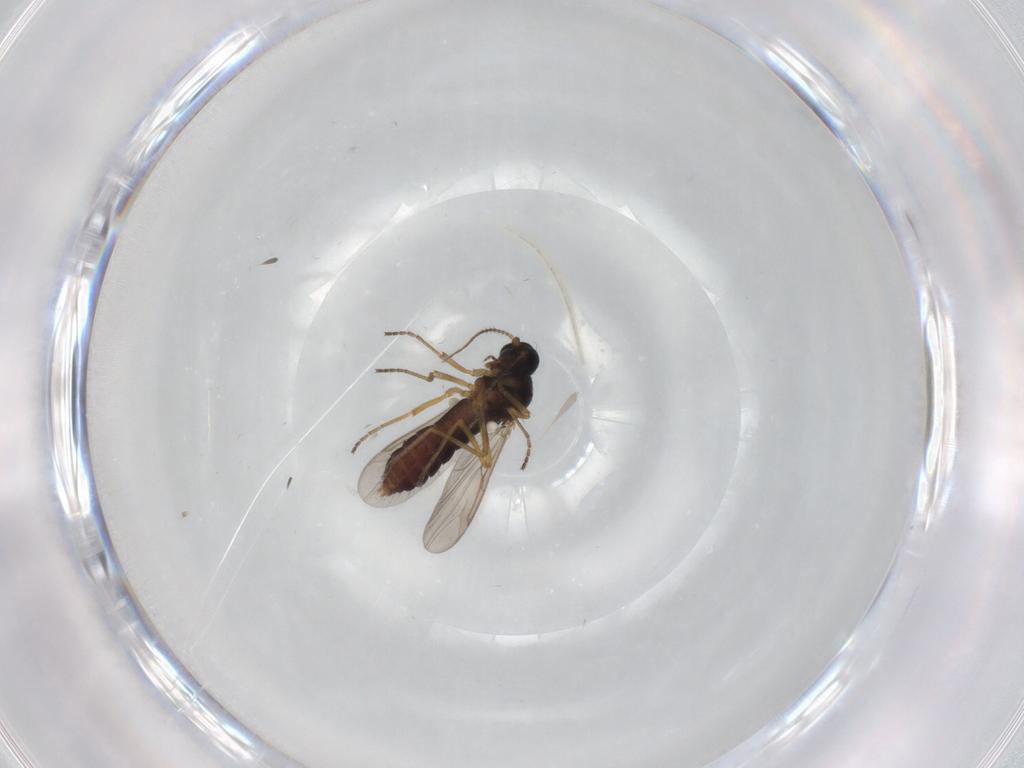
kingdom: Animalia
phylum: Arthropoda
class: Insecta
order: Diptera
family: Ceratopogonidae
